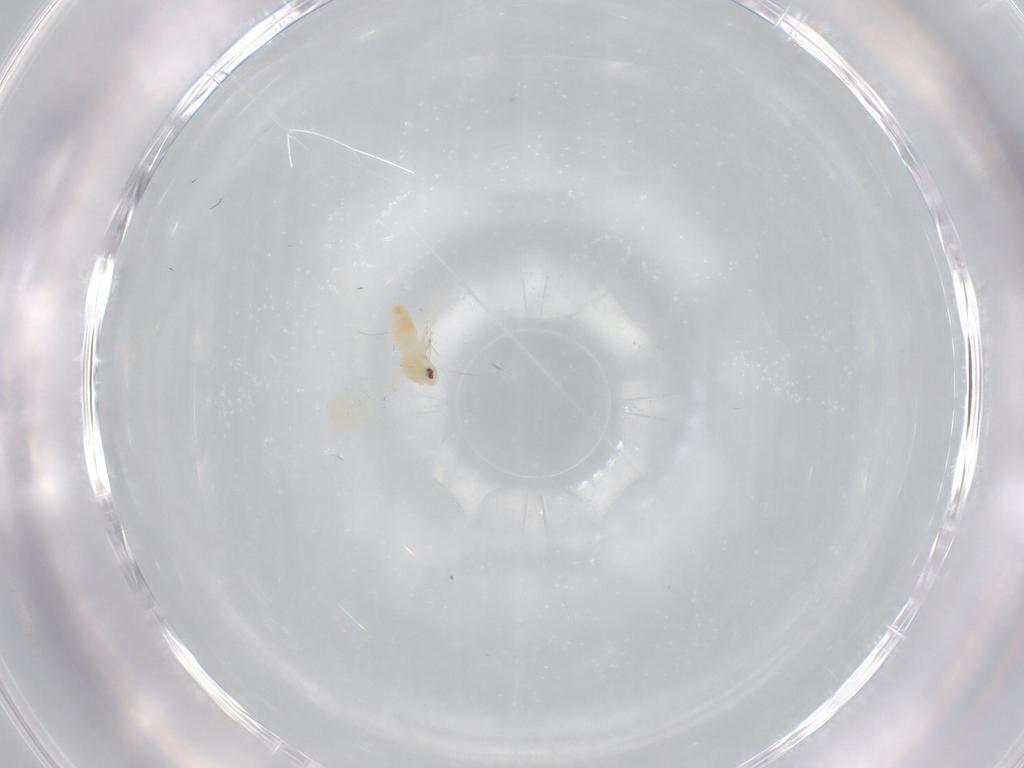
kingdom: Animalia
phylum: Arthropoda
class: Insecta
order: Hemiptera
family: Aleyrodidae
